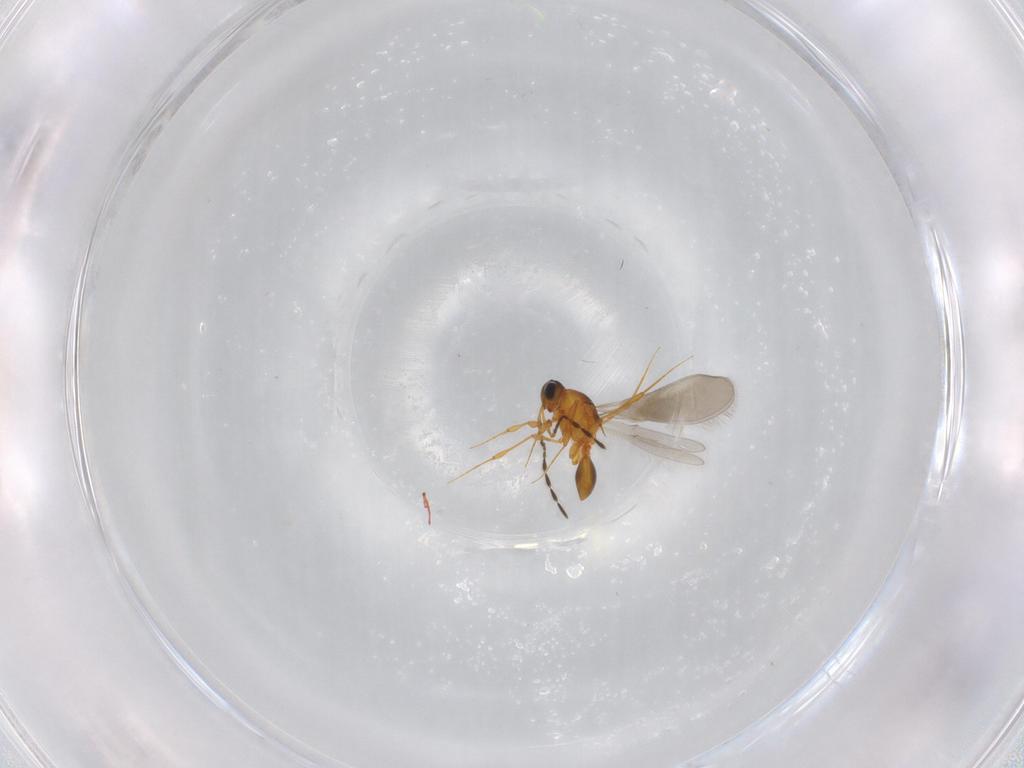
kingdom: Animalia
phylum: Arthropoda
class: Insecta
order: Hymenoptera
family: Platygastridae
